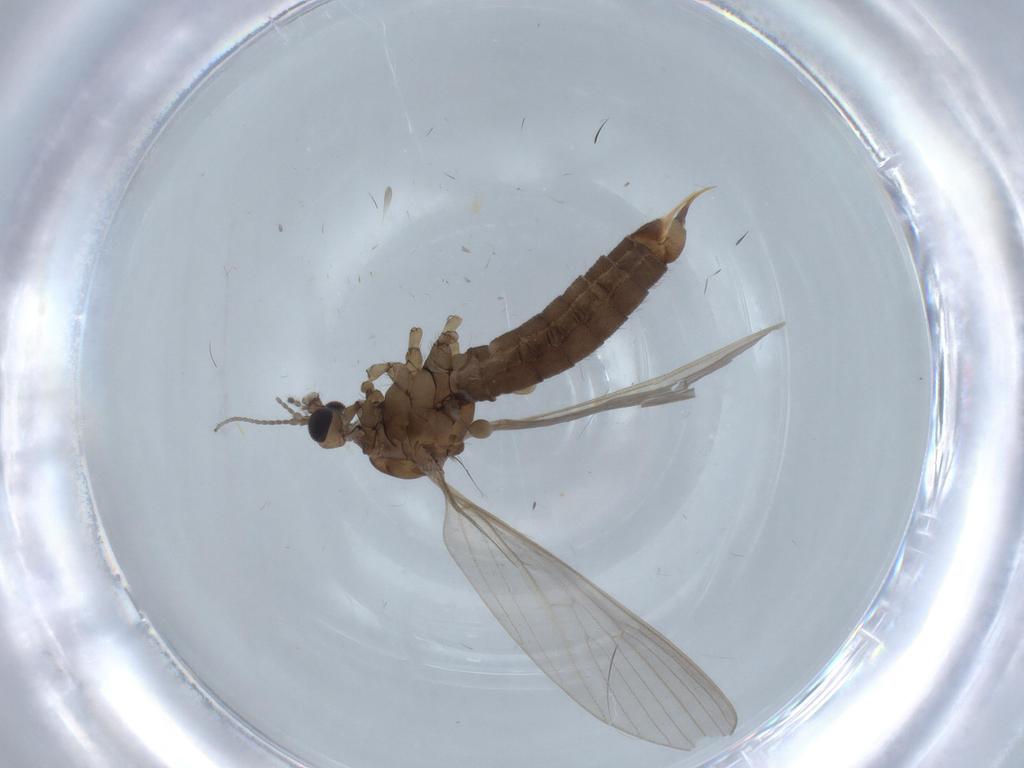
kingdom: Animalia
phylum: Arthropoda
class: Insecta
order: Diptera
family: Limoniidae
